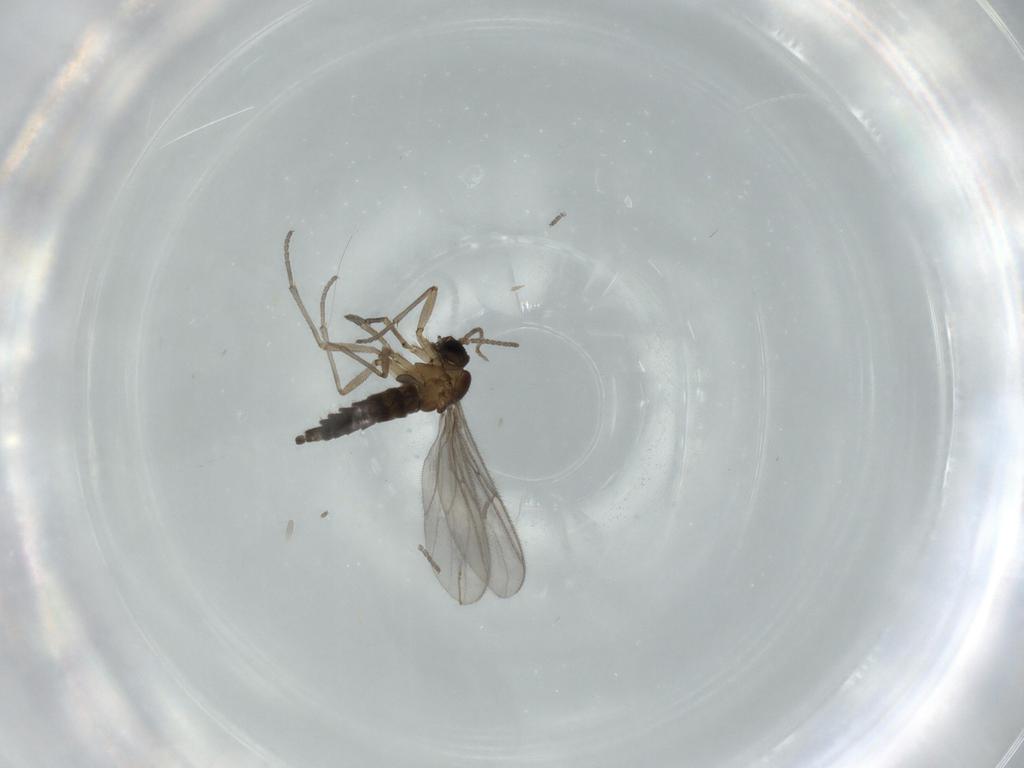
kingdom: Animalia
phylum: Arthropoda
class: Insecta
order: Diptera
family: Sciaridae
